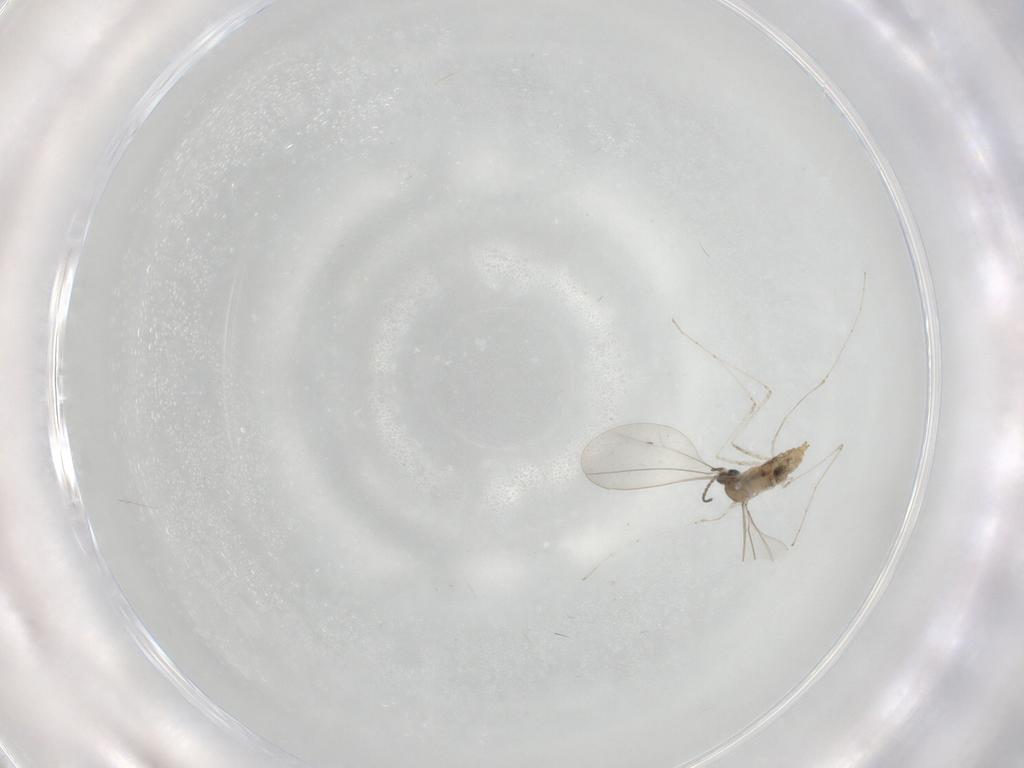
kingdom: Animalia
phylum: Arthropoda
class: Insecta
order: Diptera
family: Cecidomyiidae
